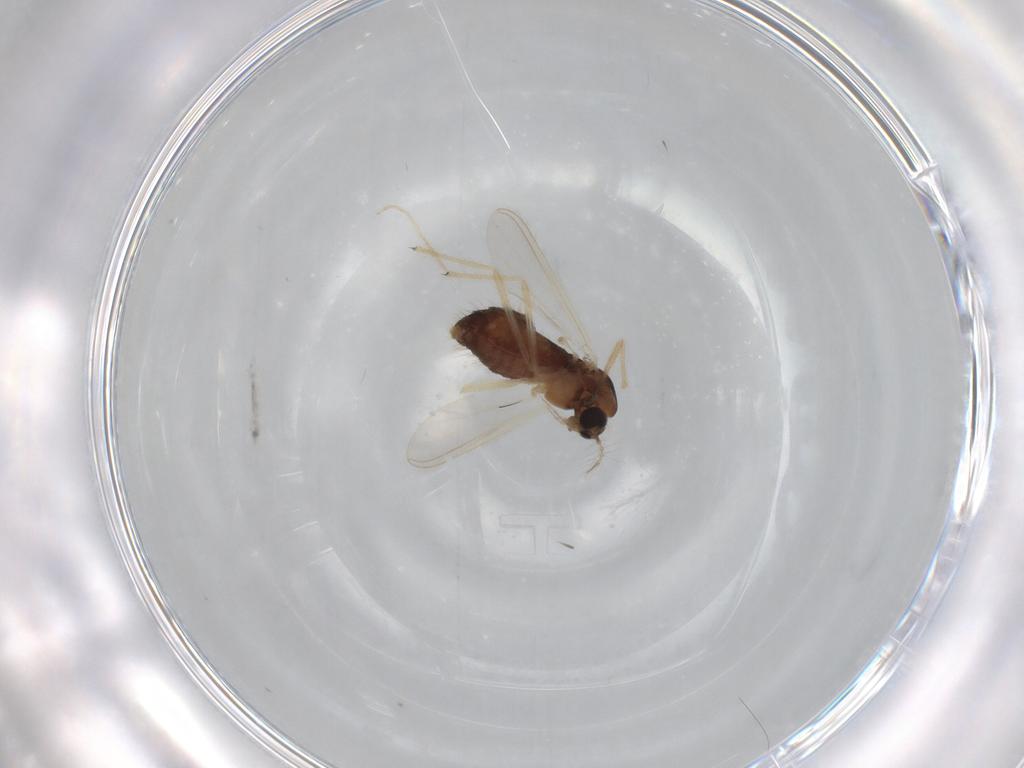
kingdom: Animalia
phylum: Arthropoda
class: Insecta
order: Diptera
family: Chironomidae
